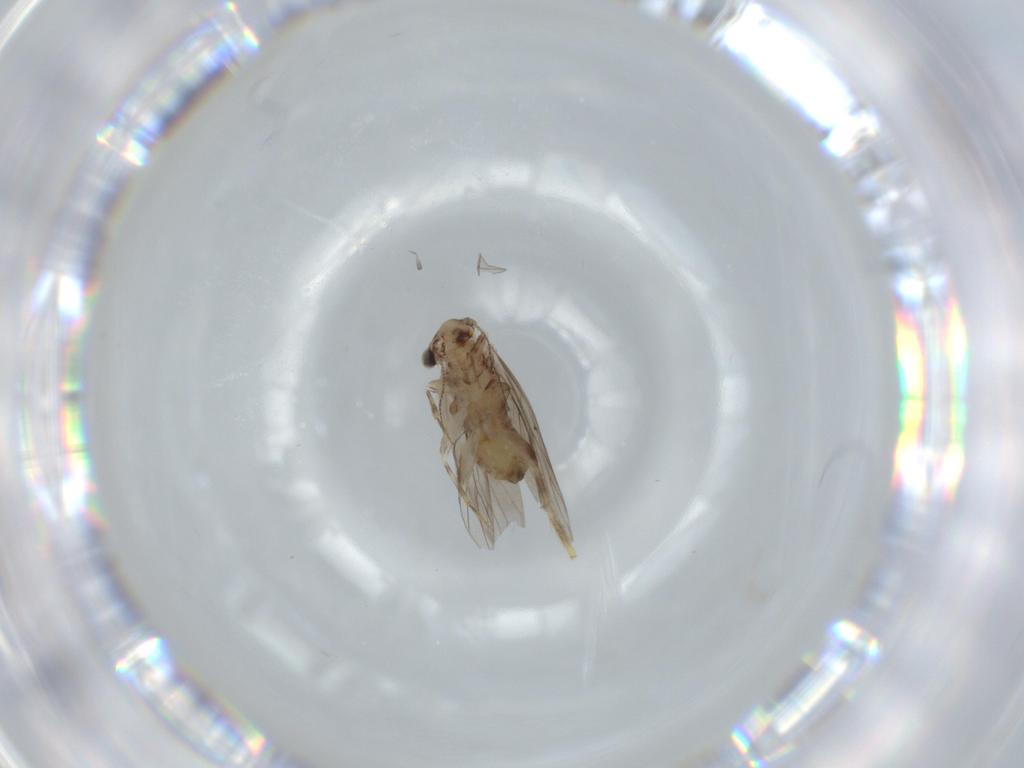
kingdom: Animalia
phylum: Arthropoda
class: Insecta
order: Psocodea
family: Lepidopsocidae
